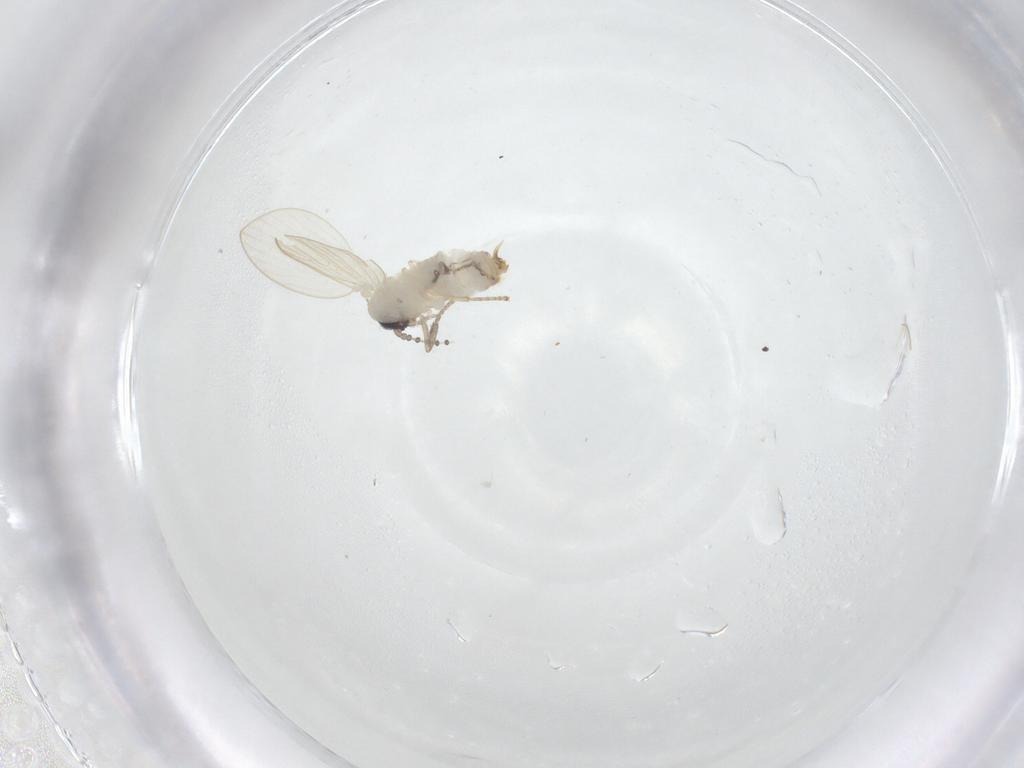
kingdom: Animalia
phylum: Arthropoda
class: Insecta
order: Diptera
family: Psychodidae
